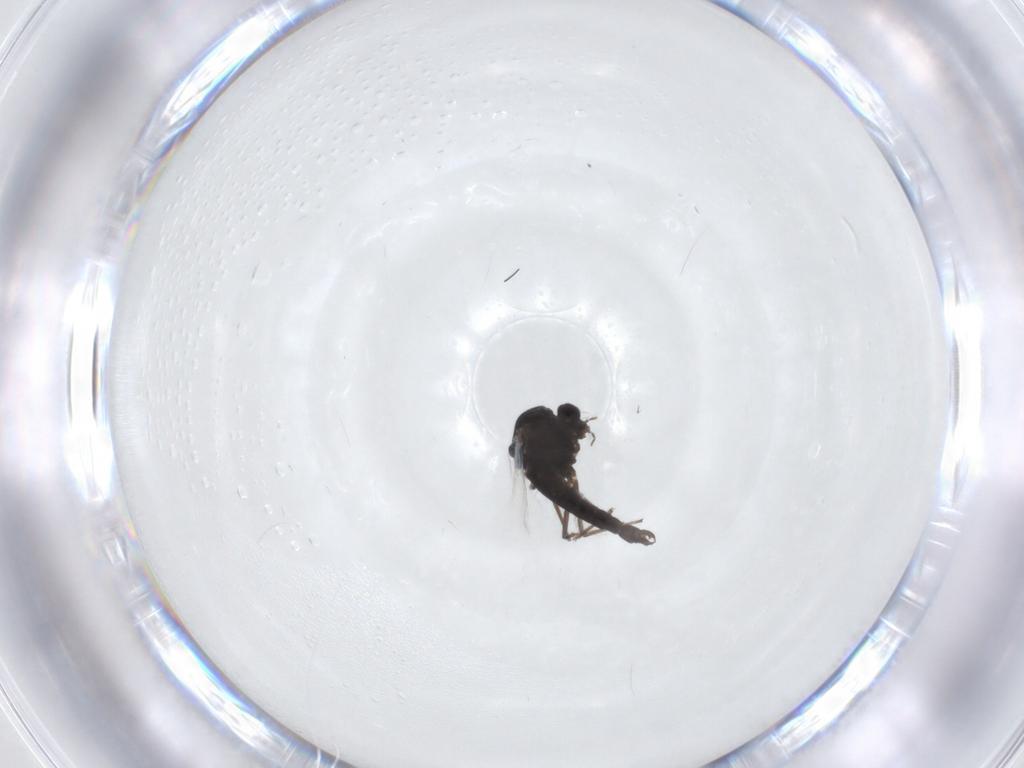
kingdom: Animalia
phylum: Arthropoda
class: Insecta
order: Diptera
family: Chironomidae
